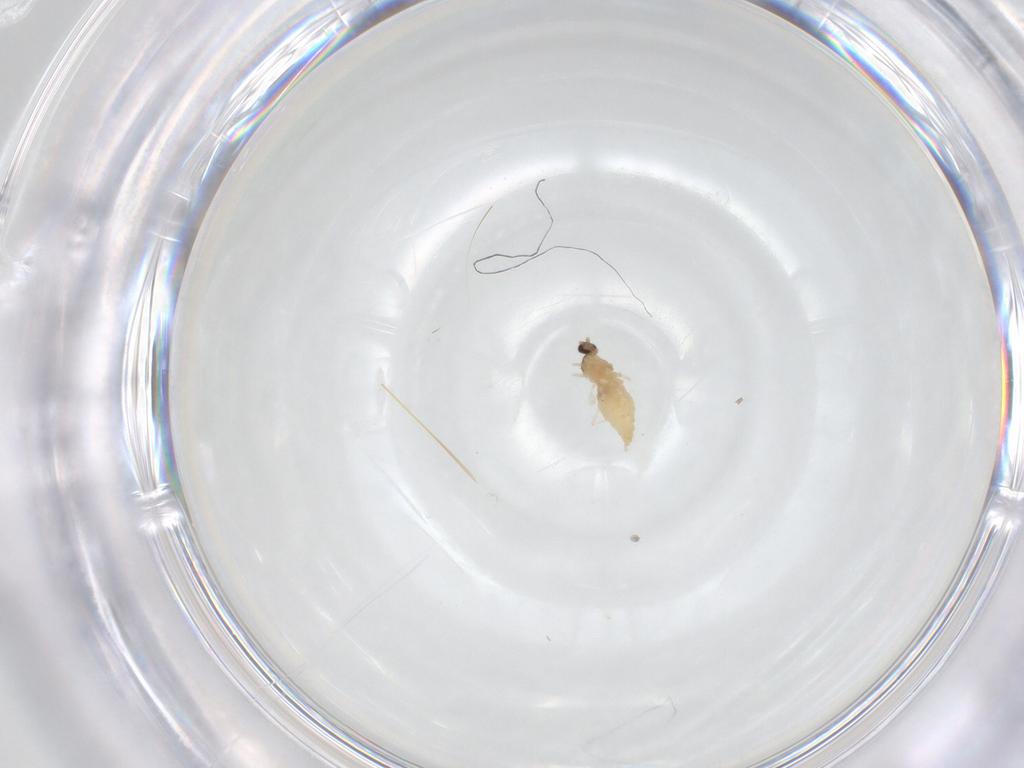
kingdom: Animalia
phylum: Arthropoda
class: Insecta
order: Diptera
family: Cecidomyiidae
